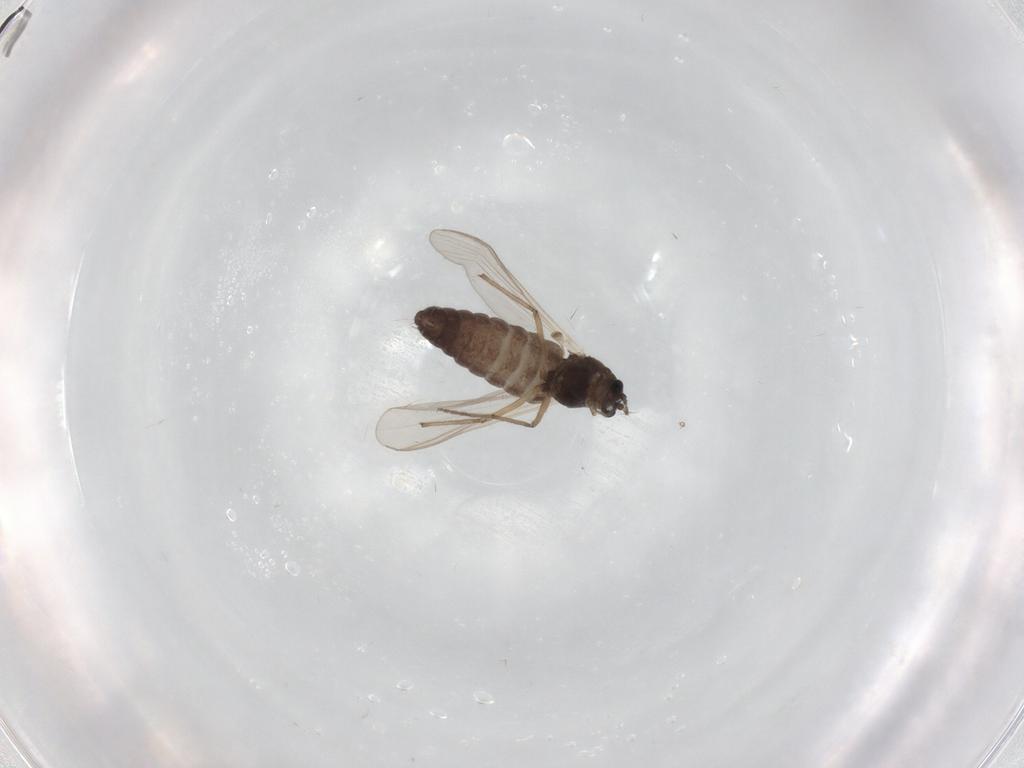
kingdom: Animalia
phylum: Arthropoda
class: Insecta
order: Diptera
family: Chironomidae
